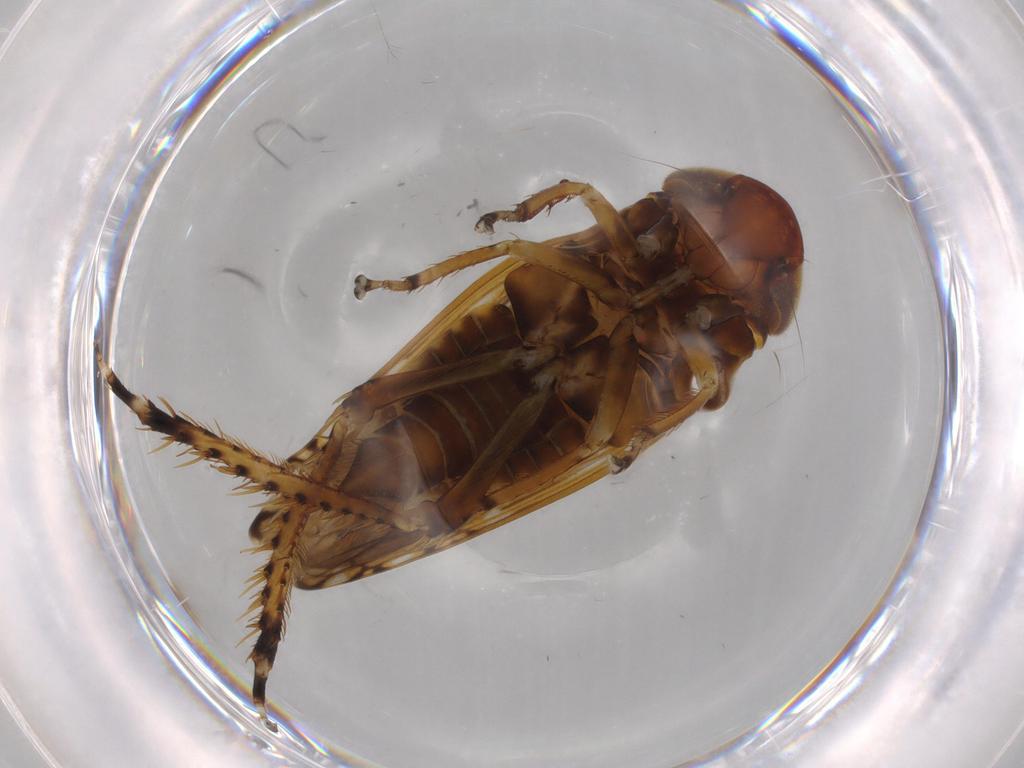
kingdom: Animalia
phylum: Arthropoda
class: Insecta
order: Hemiptera
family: Cicadellidae
